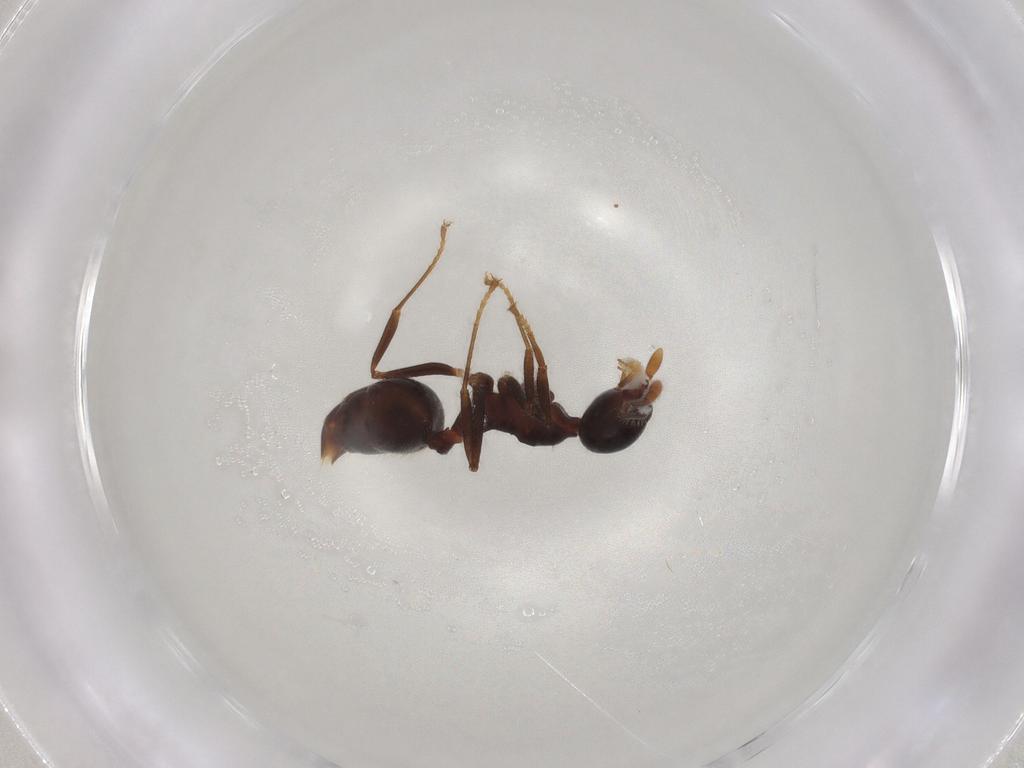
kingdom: Animalia
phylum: Arthropoda
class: Insecta
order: Hymenoptera
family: Formicidae
